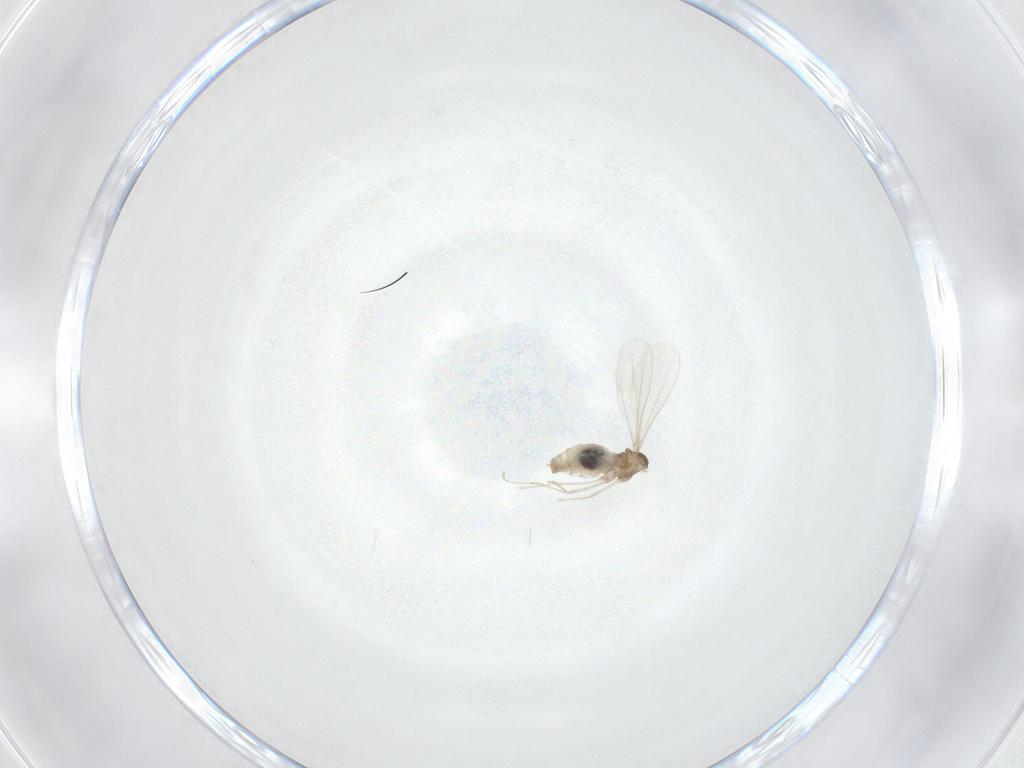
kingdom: Animalia
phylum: Arthropoda
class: Insecta
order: Diptera
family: Cecidomyiidae
